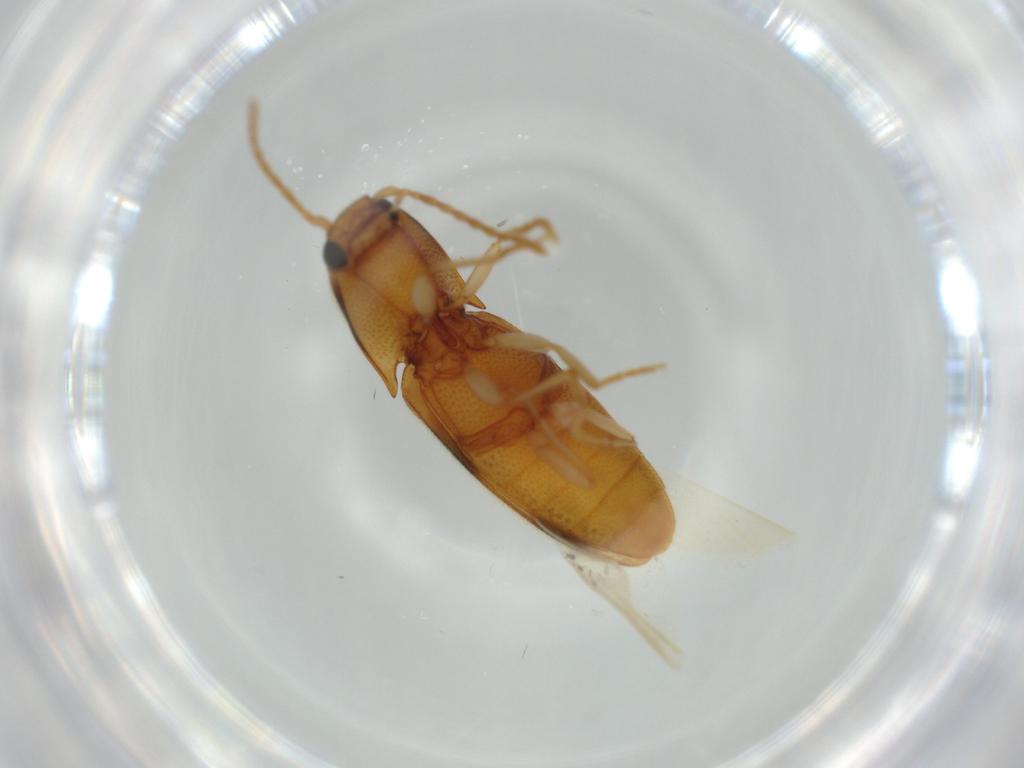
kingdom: Animalia
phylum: Arthropoda
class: Insecta
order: Coleoptera
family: Elateridae
